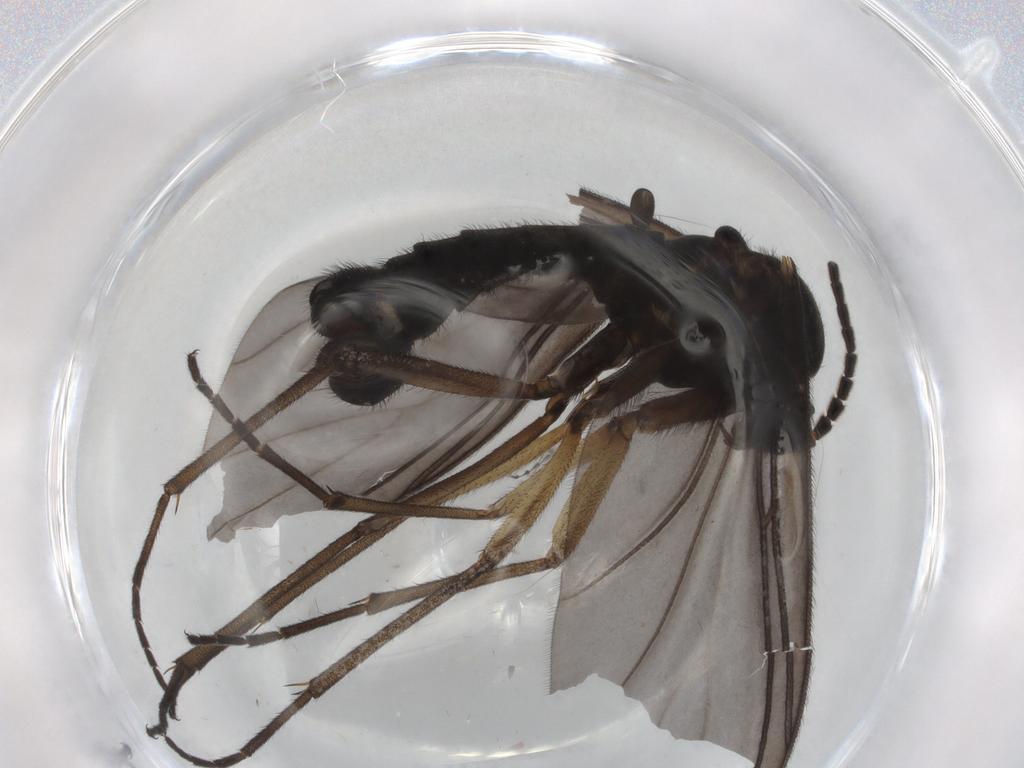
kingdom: Animalia
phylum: Arthropoda
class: Insecta
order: Diptera
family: Sciaridae
